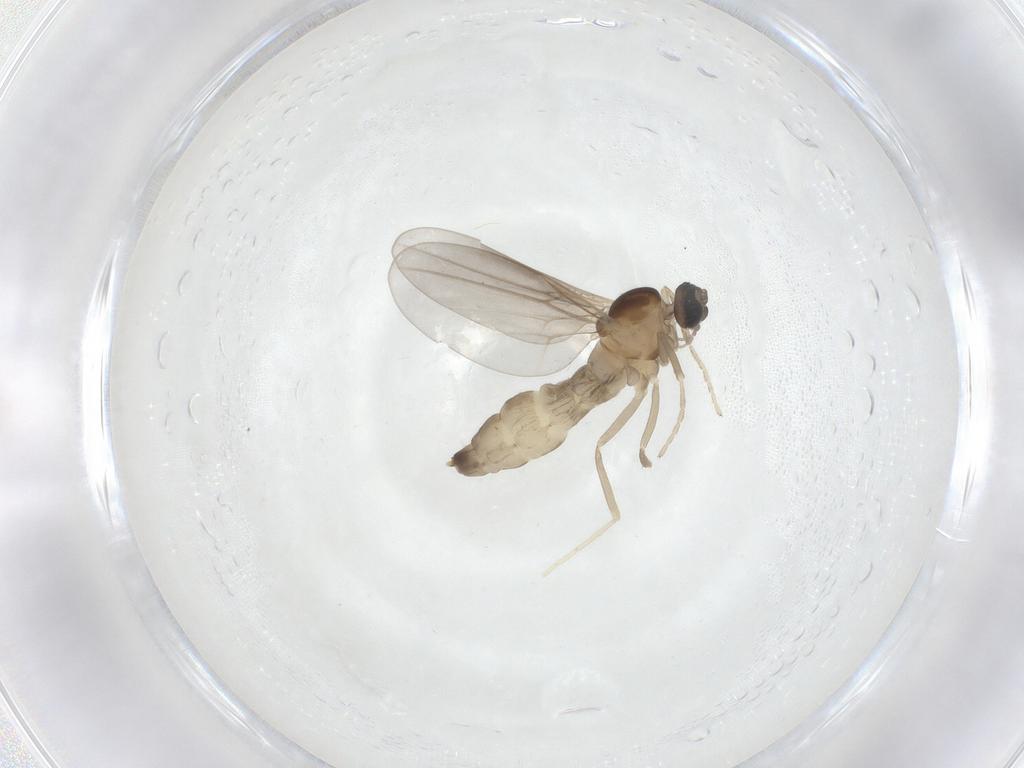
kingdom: Animalia
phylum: Arthropoda
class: Insecta
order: Diptera
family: Cecidomyiidae
